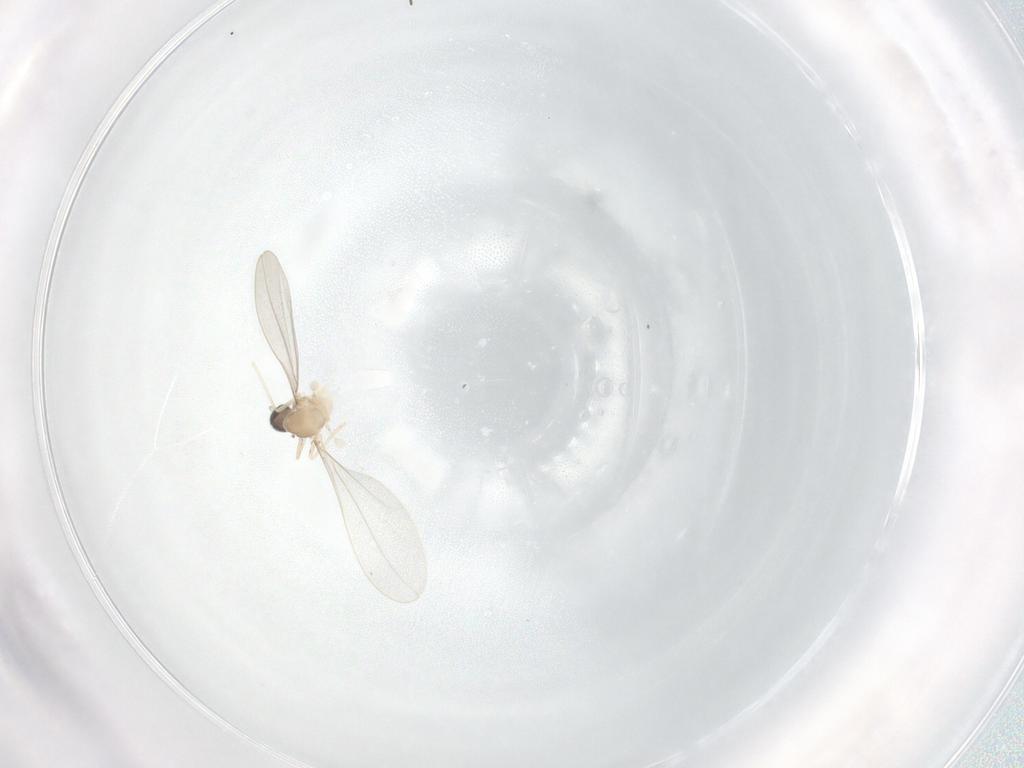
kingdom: Animalia
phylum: Arthropoda
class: Insecta
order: Diptera
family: Cecidomyiidae
